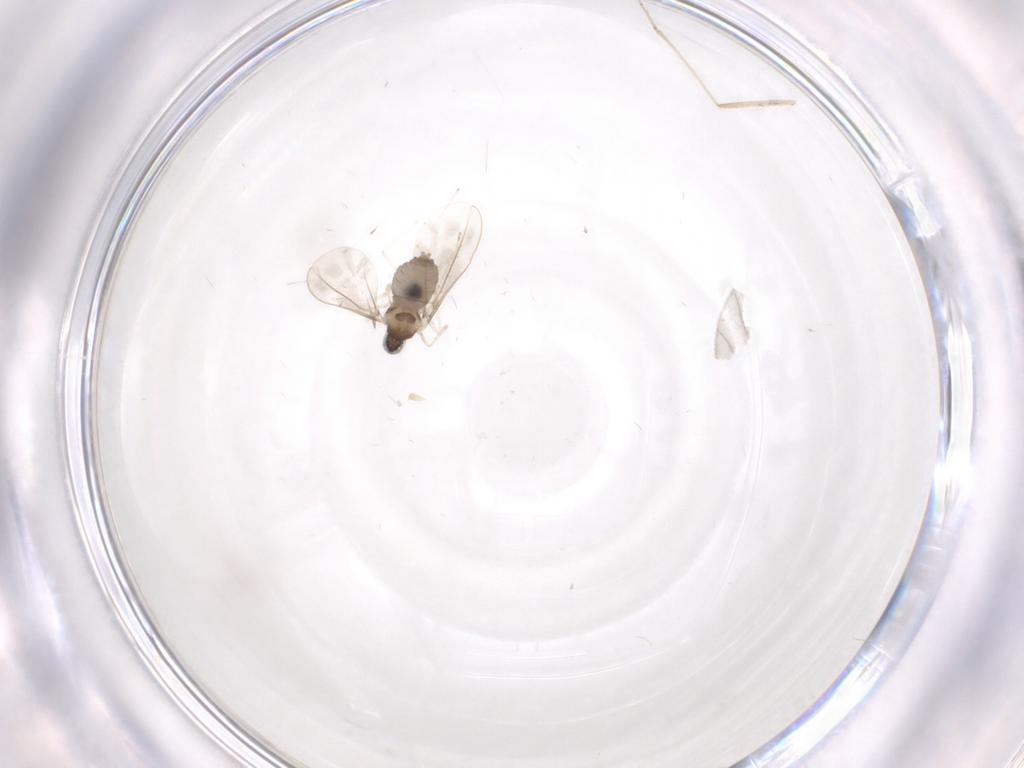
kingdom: Animalia
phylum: Arthropoda
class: Insecta
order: Diptera
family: Cecidomyiidae
